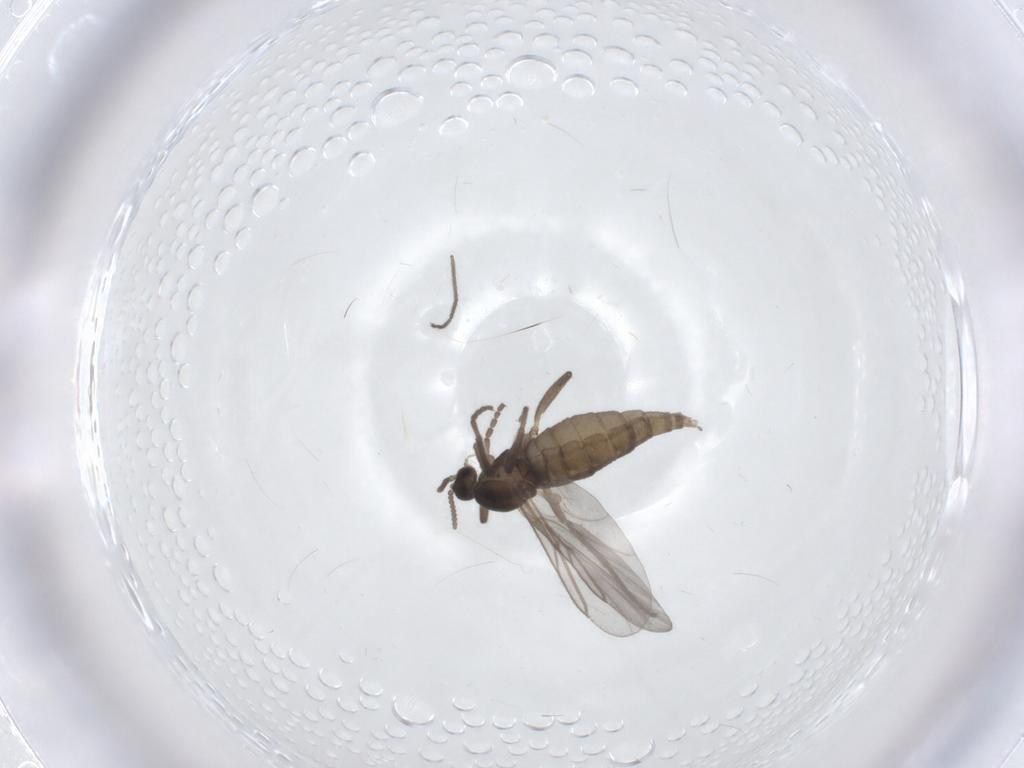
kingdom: Animalia
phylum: Arthropoda
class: Insecta
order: Diptera
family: Cecidomyiidae
